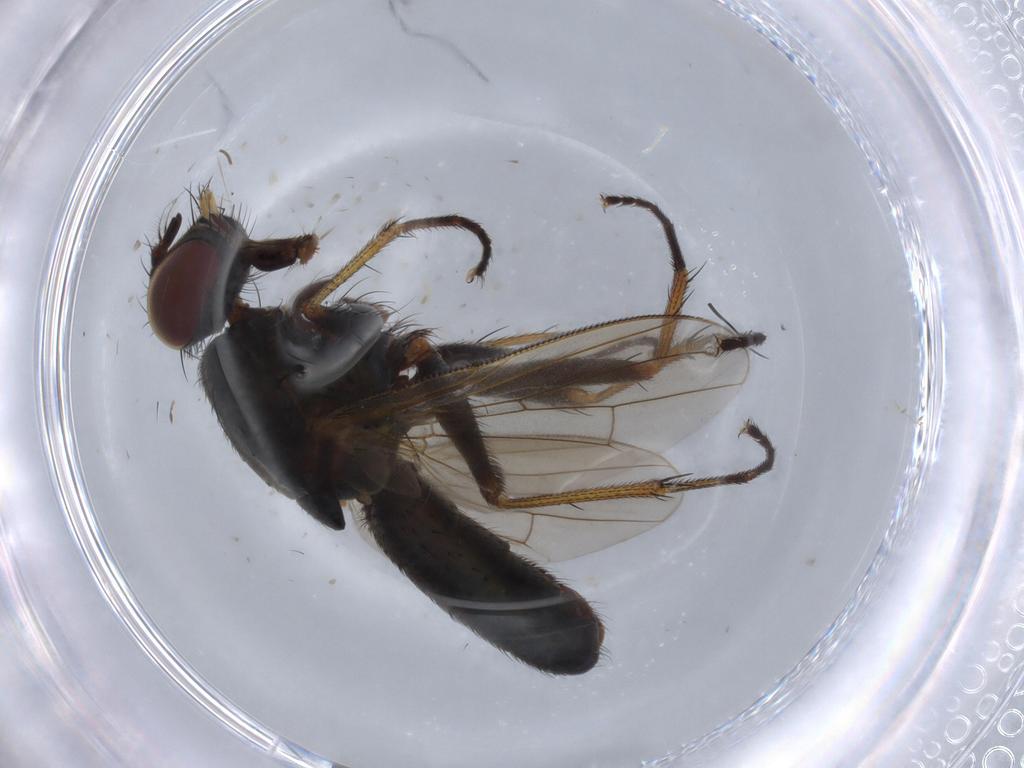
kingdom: Animalia
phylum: Arthropoda
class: Insecta
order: Diptera
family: Muscidae
